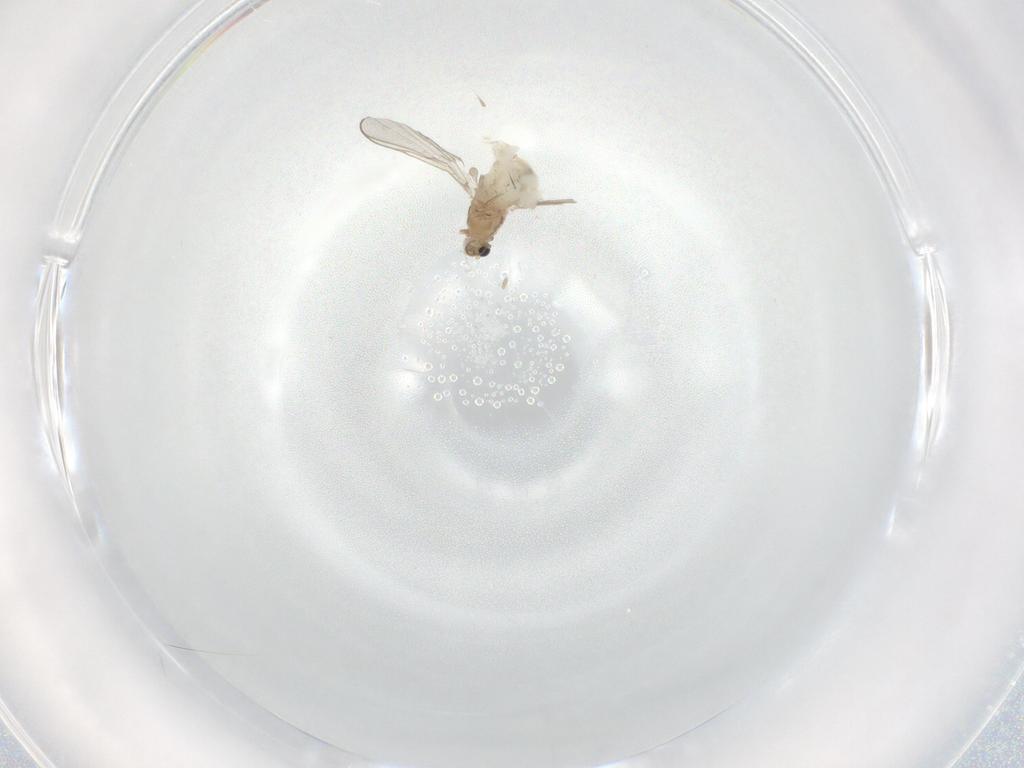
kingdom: Animalia
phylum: Arthropoda
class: Insecta
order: Diptera
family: Chironomidae
